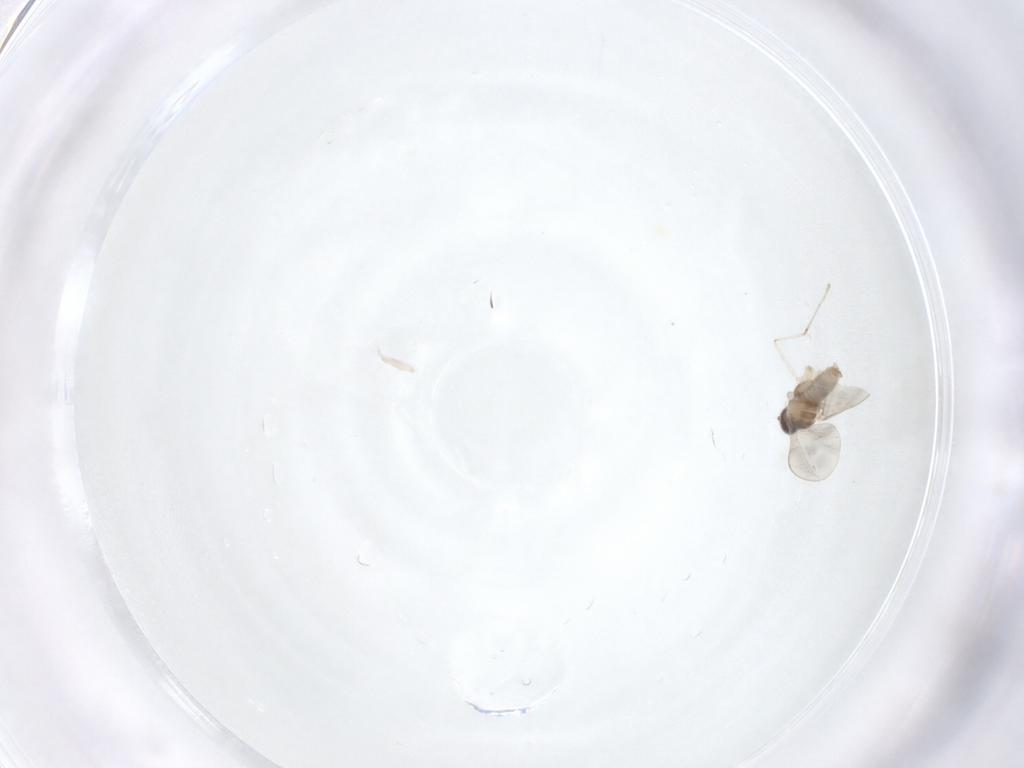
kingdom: Animalia
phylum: Arthropoda
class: Insecta
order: Diptera
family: Cecidomyiidae
